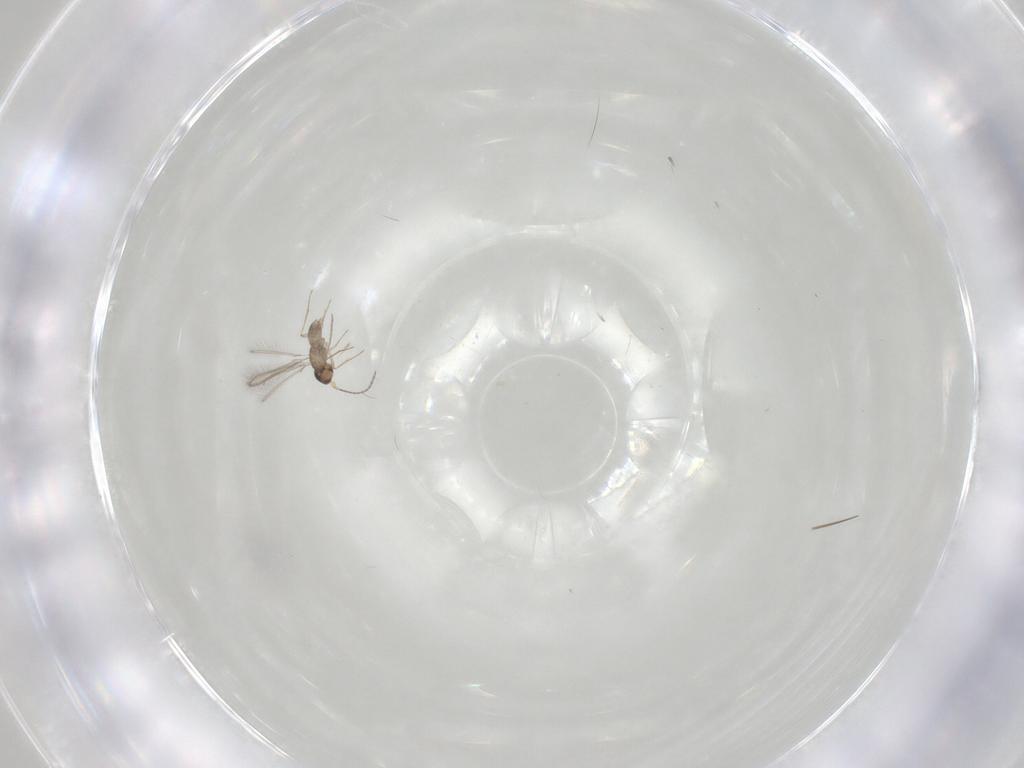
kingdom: Animalia
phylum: Arthropoda
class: Insecta
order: Hymenoptera
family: Mymaridae
